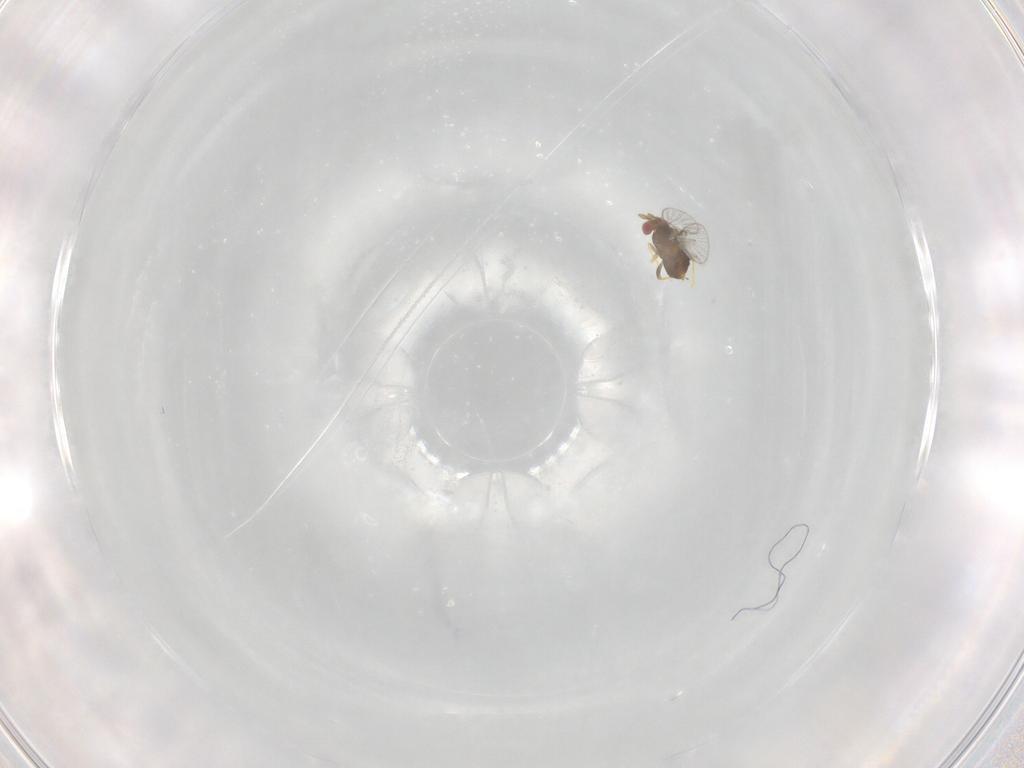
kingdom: Animalia
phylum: Arthropoda
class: Insecta
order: Hymenoptera
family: Trichogrammatidae
